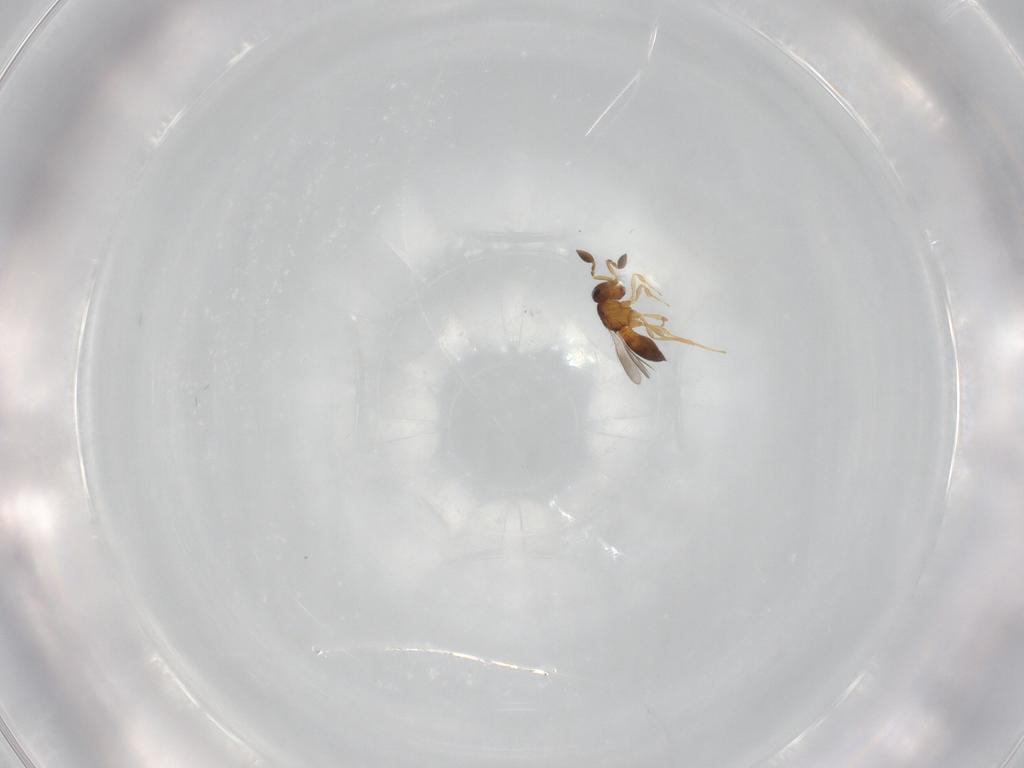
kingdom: Animalia
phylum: Arthropoda
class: Insecta
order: Hymenoptera
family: Scelionidae
